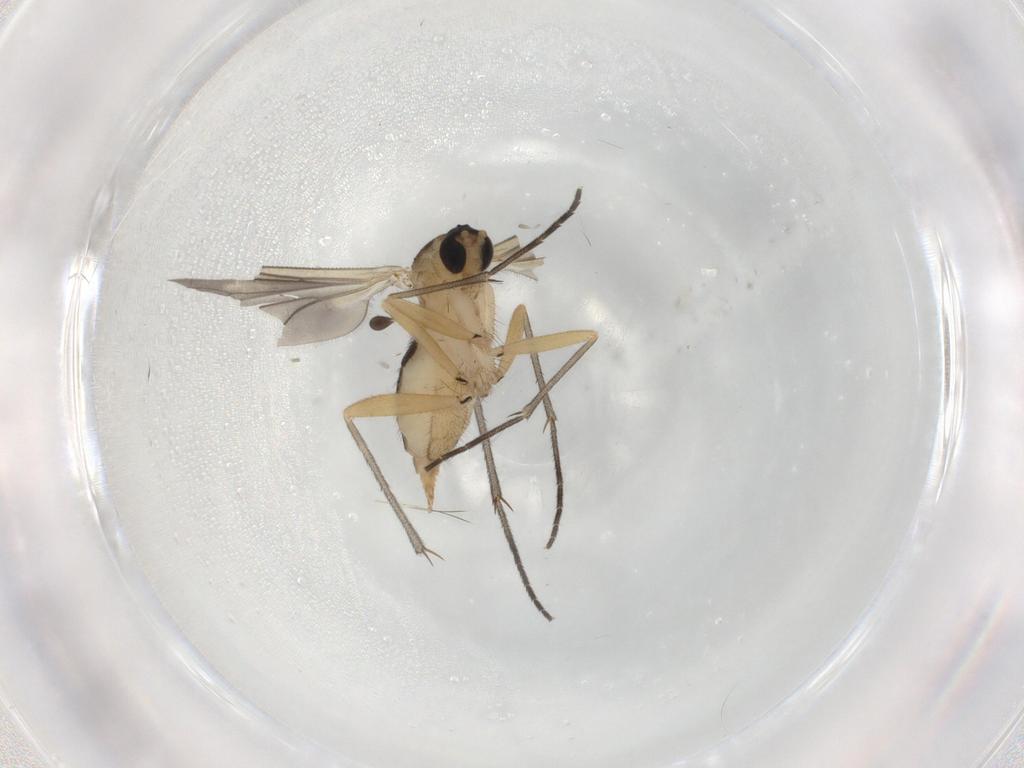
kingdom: Animalia
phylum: Arthropoda
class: Insecta
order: Diptera
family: Sciaridae
